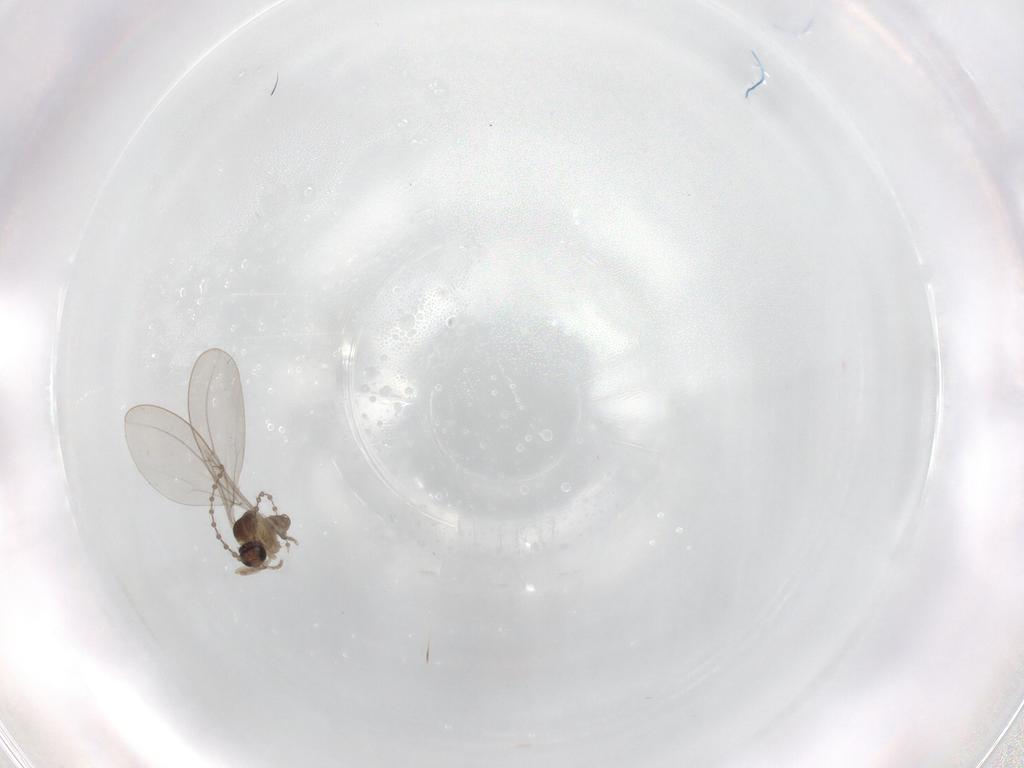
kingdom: Animalia
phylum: Arthropoda
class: Insecta
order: Diptera
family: Cecidomyiidae
